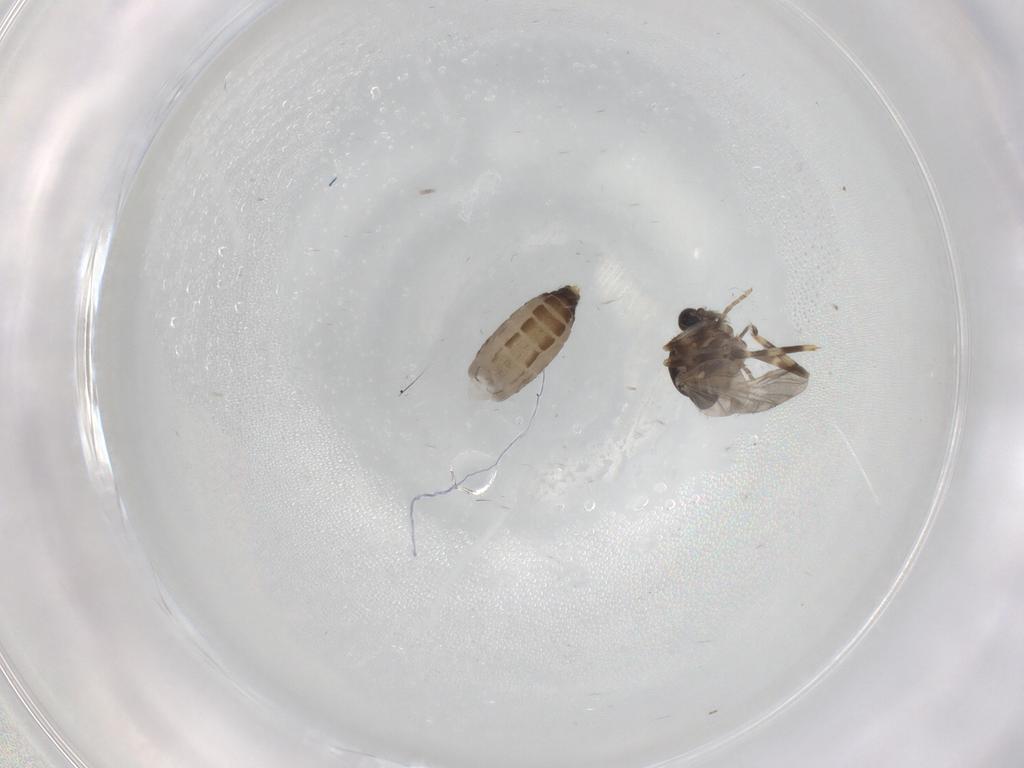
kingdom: Animalia
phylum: Arthropoda
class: Insecta
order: Diptera
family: Ceratopogonidae
